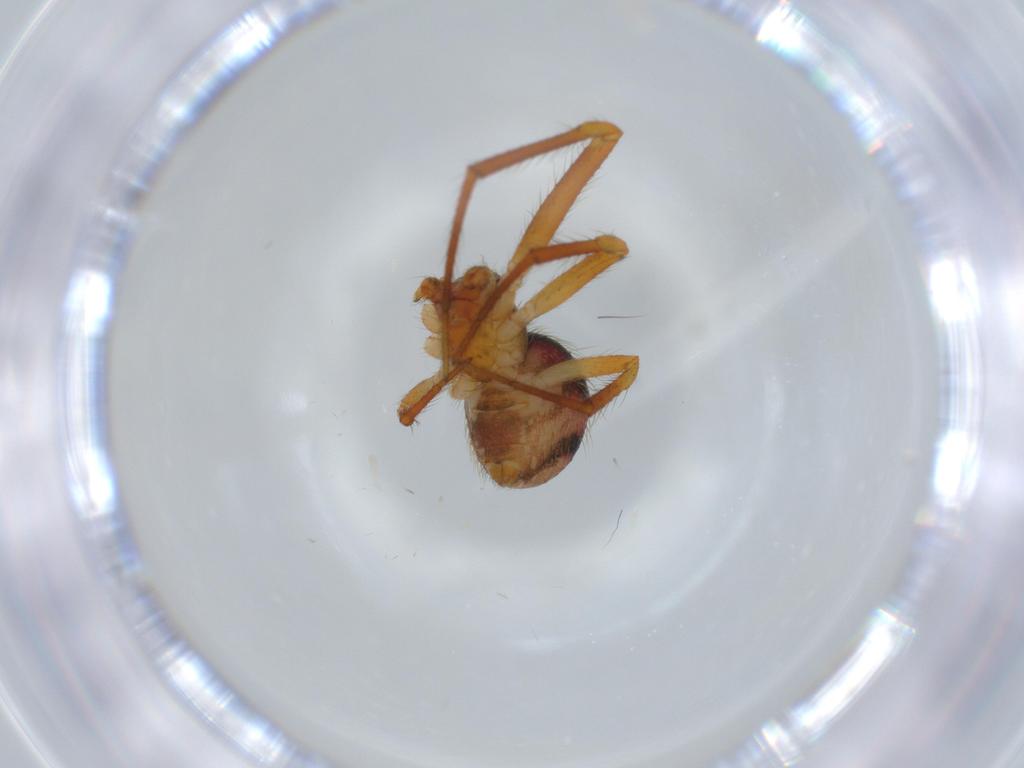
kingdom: Animalia
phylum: Arthropoda
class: Arachnida
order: Araneae
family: Theridiidae
